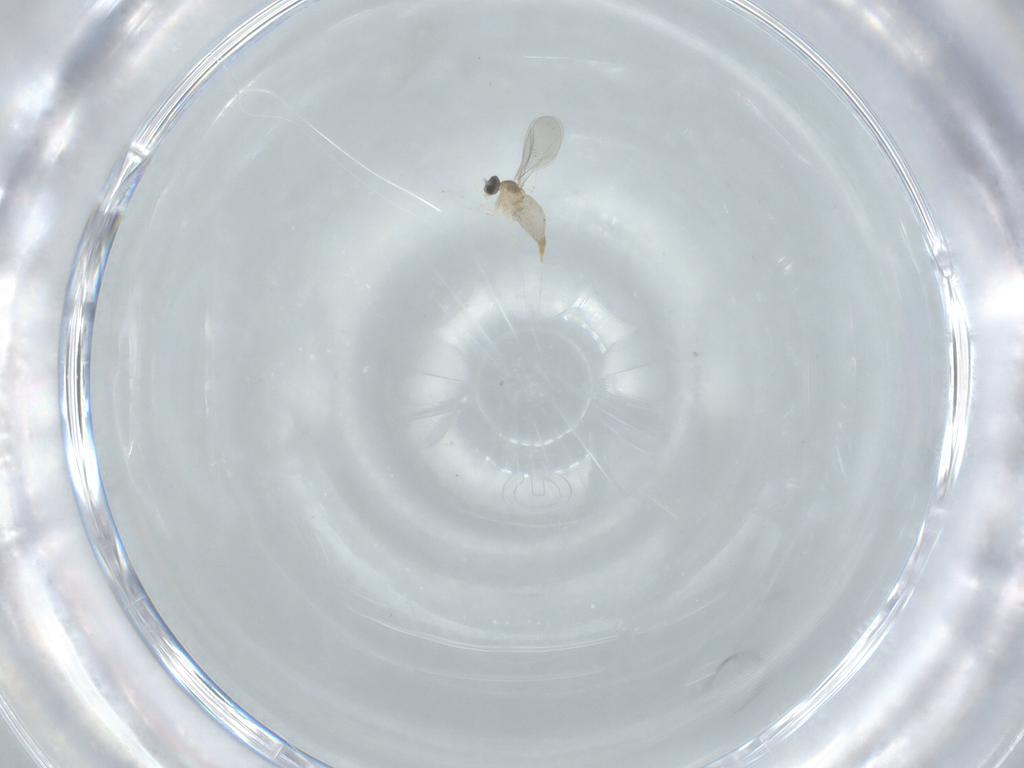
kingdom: Animalia
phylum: Arthropoda
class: Insecta
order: Diptera
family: Cecidomyiidae
